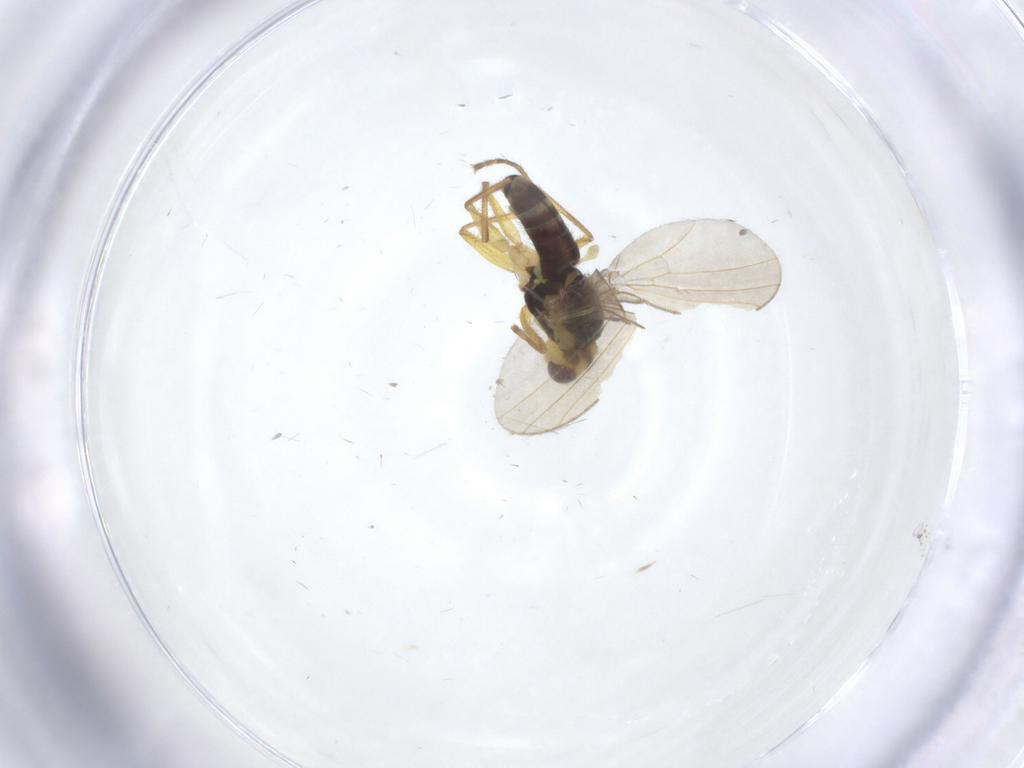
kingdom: Animalia
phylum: Arthropoda
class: Insecta
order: Diptera
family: Agromyzidae
